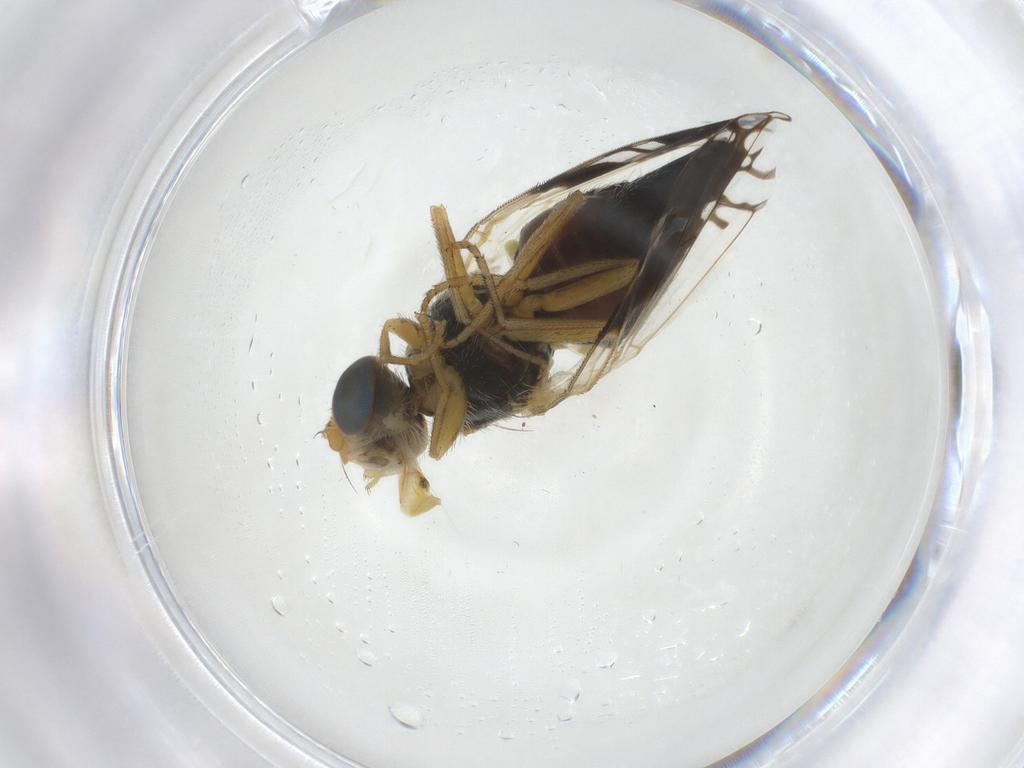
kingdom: Animalia
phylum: Arthropoda
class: Insecta
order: Diptera
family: Tephritidae
